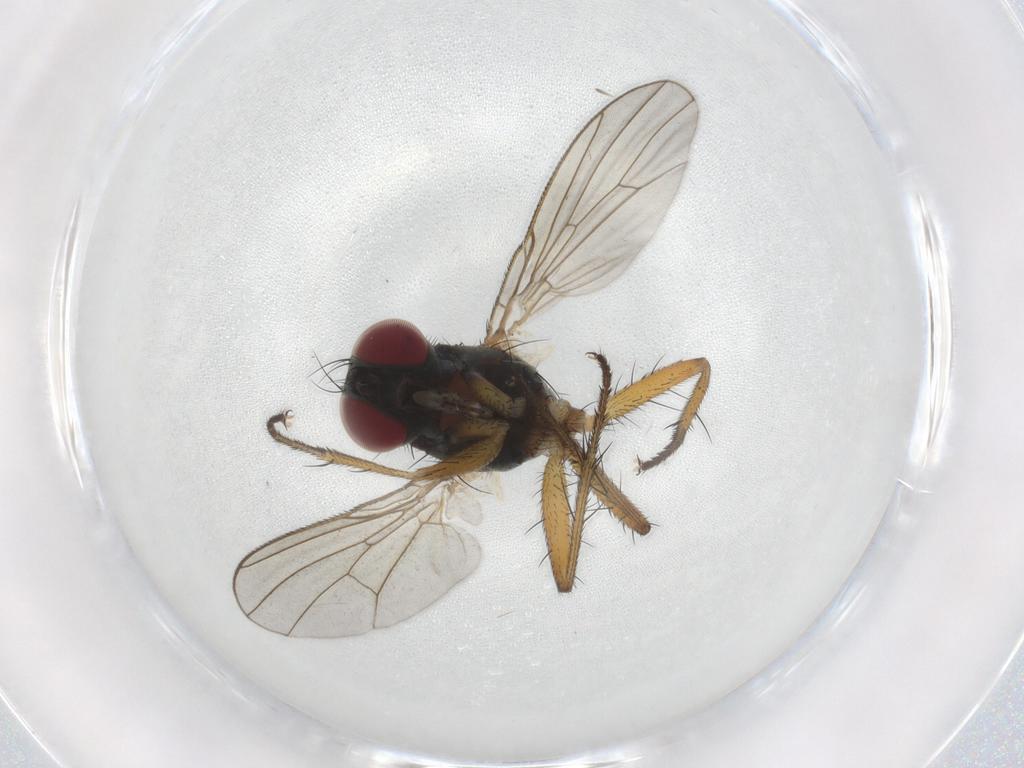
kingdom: Animalia
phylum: Arthropoda
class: Insecta
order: Diptera
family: Muscidae
